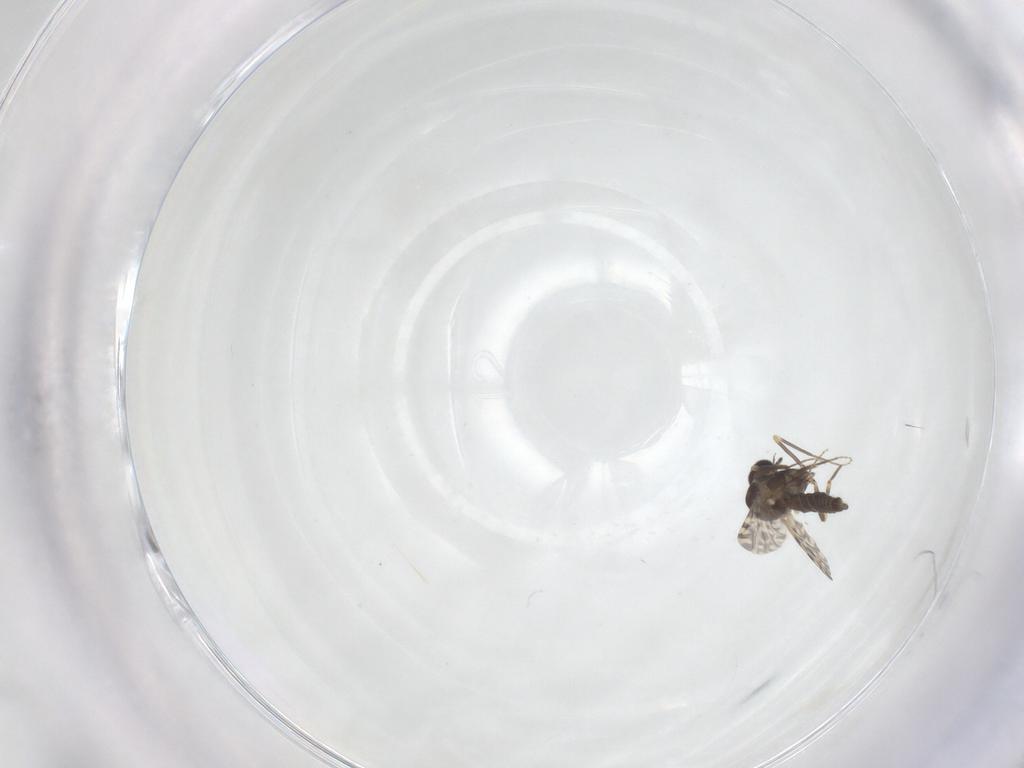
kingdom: Animalia
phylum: Arthropoda
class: Insecta
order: Diptera
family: Ceratopogonidae
